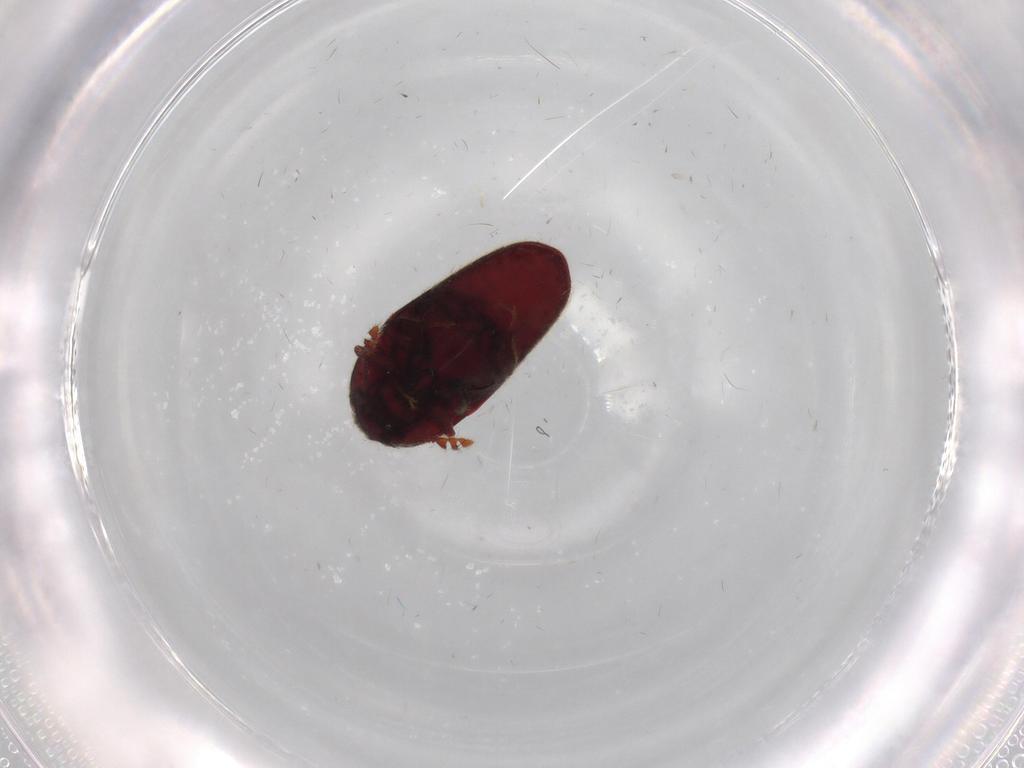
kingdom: Animalia
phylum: Arthropoda
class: Insecta
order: Coleoptera
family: Throscidae
